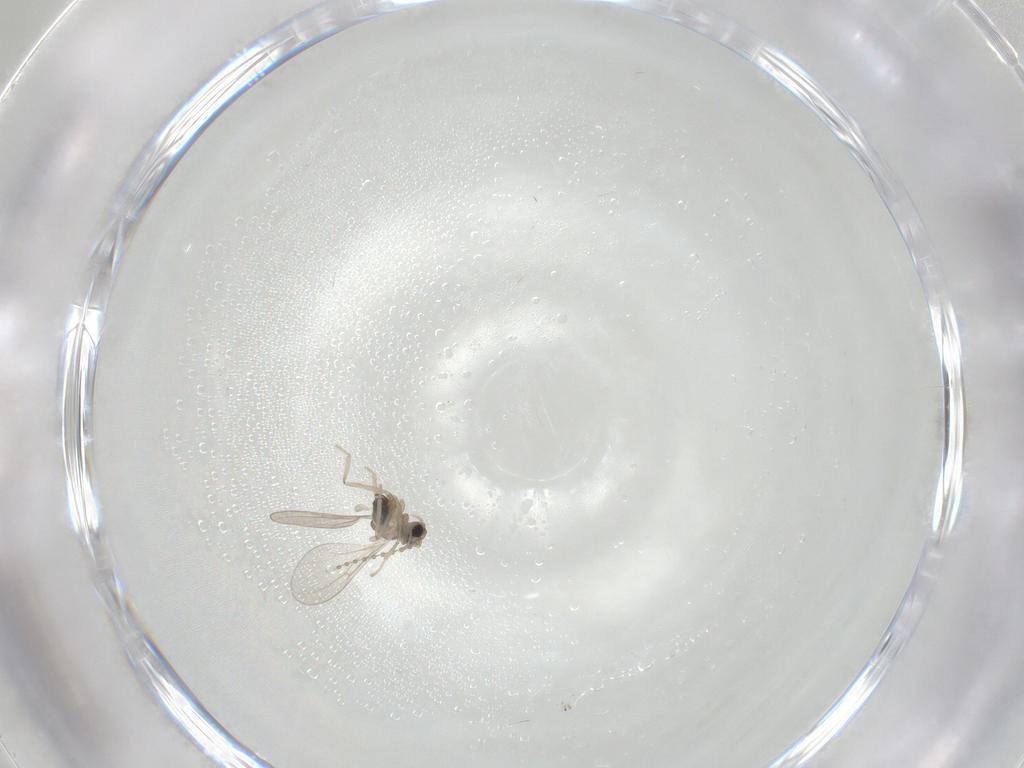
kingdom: Animalia
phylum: Arthropoda
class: Insecta
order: Diptera
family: Cecidomyiidae
